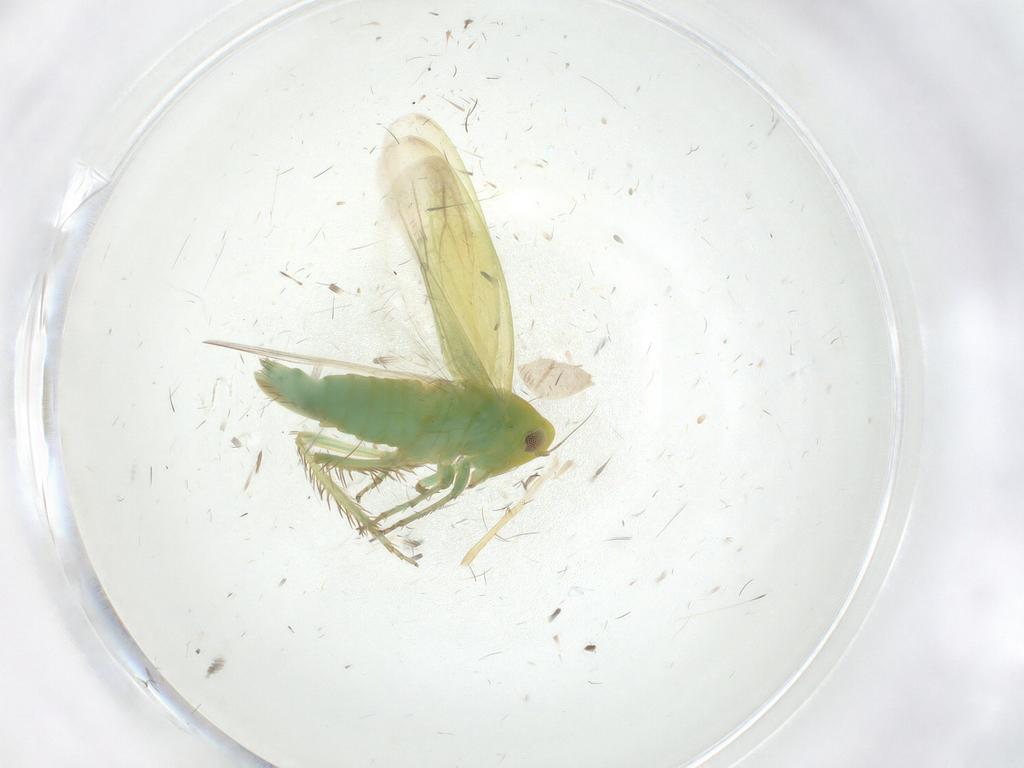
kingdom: Animalia
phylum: Arthropoda
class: Insecta
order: Hemiptera
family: Cicadellidae
